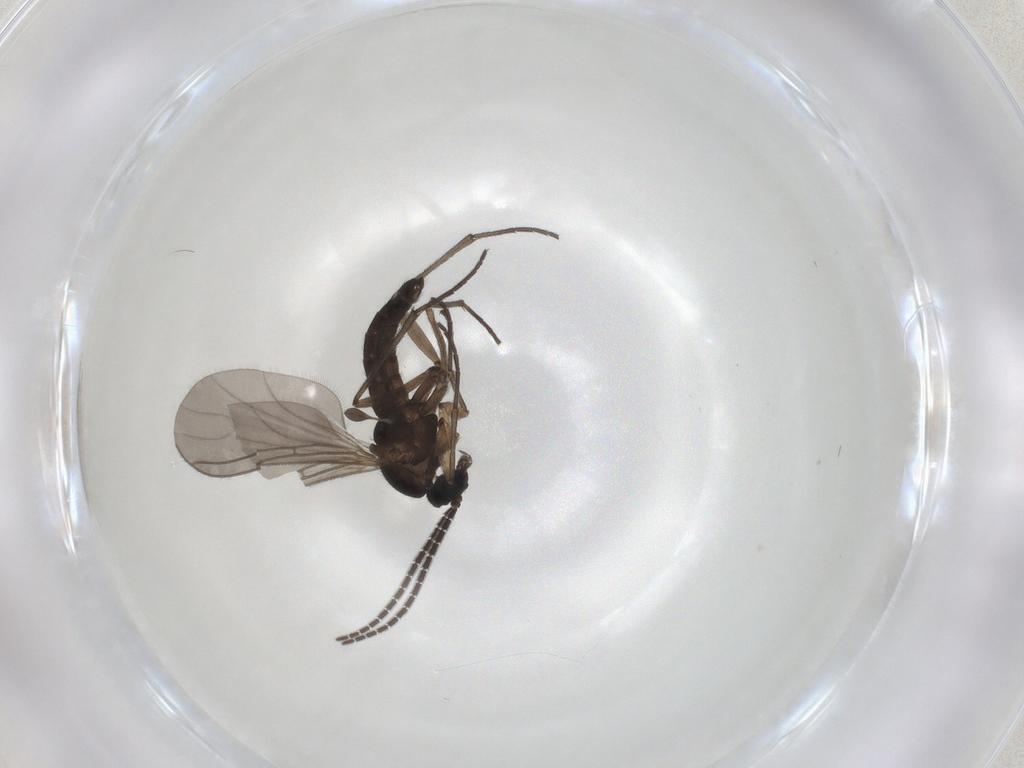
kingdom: Animalia
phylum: Arthropoda
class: Insecta
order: Diptera
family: Sciaridae
